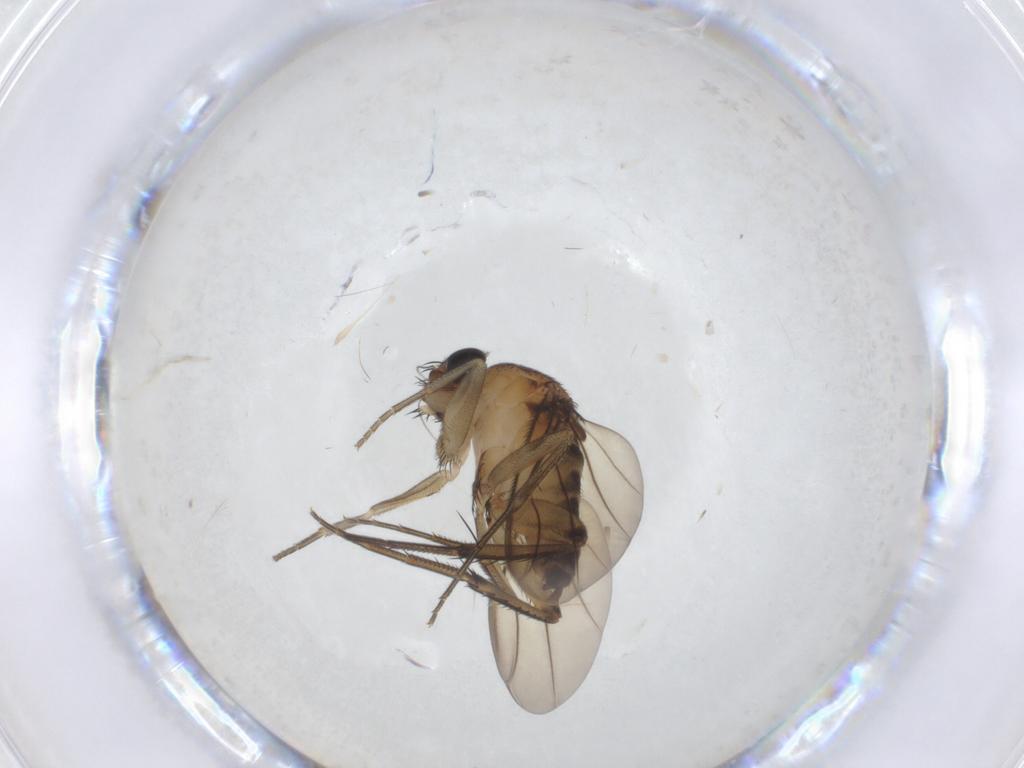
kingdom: Animalia
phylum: Arthropoda
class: Insecta
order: Diptera
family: Phoridae
